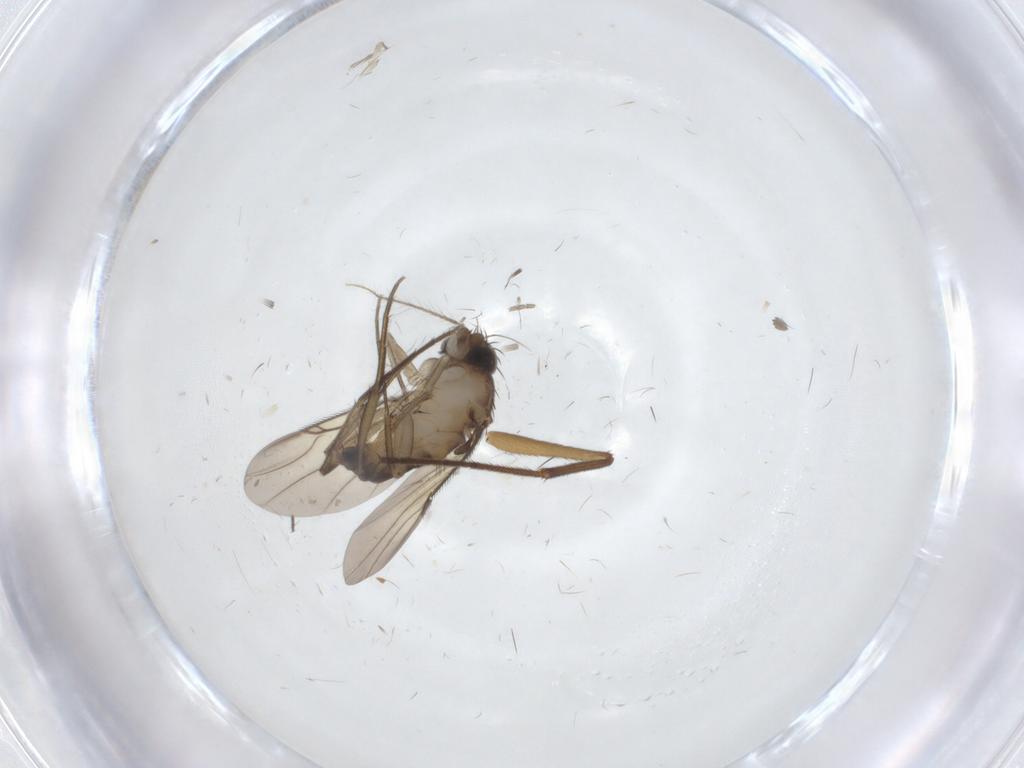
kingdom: Animalia
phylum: Arthropoda
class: Insecta
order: Diptera
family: Phoridae
